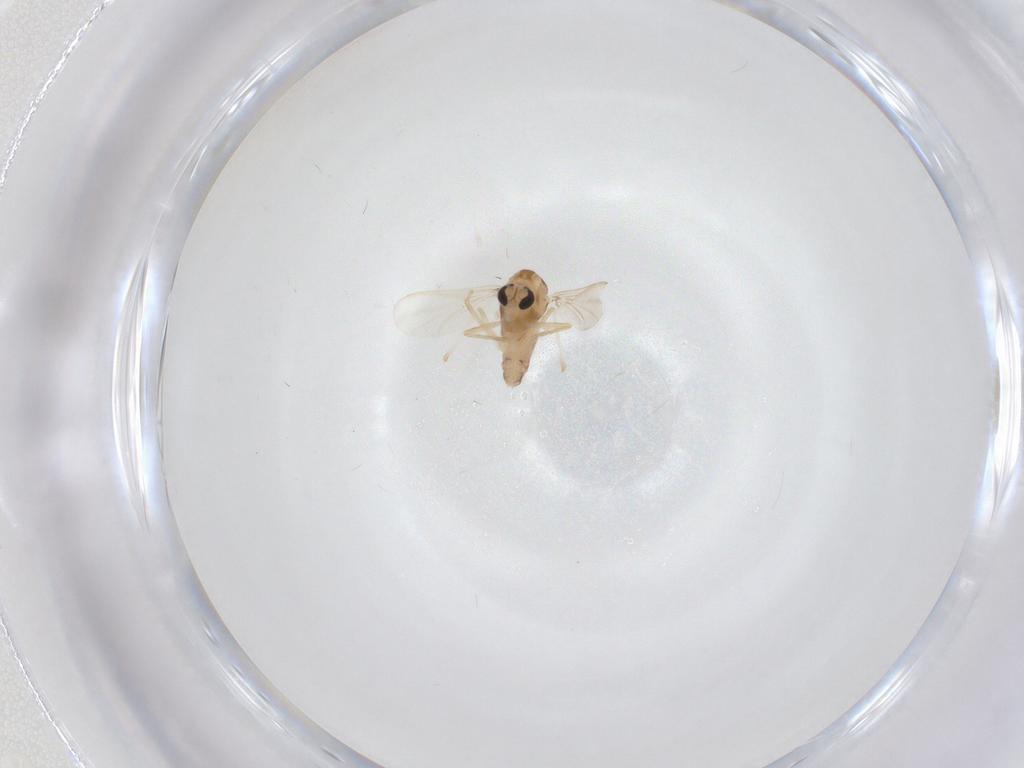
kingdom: Animalia
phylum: Arthropoda
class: Insecta
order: Diptera
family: Chironomidae
